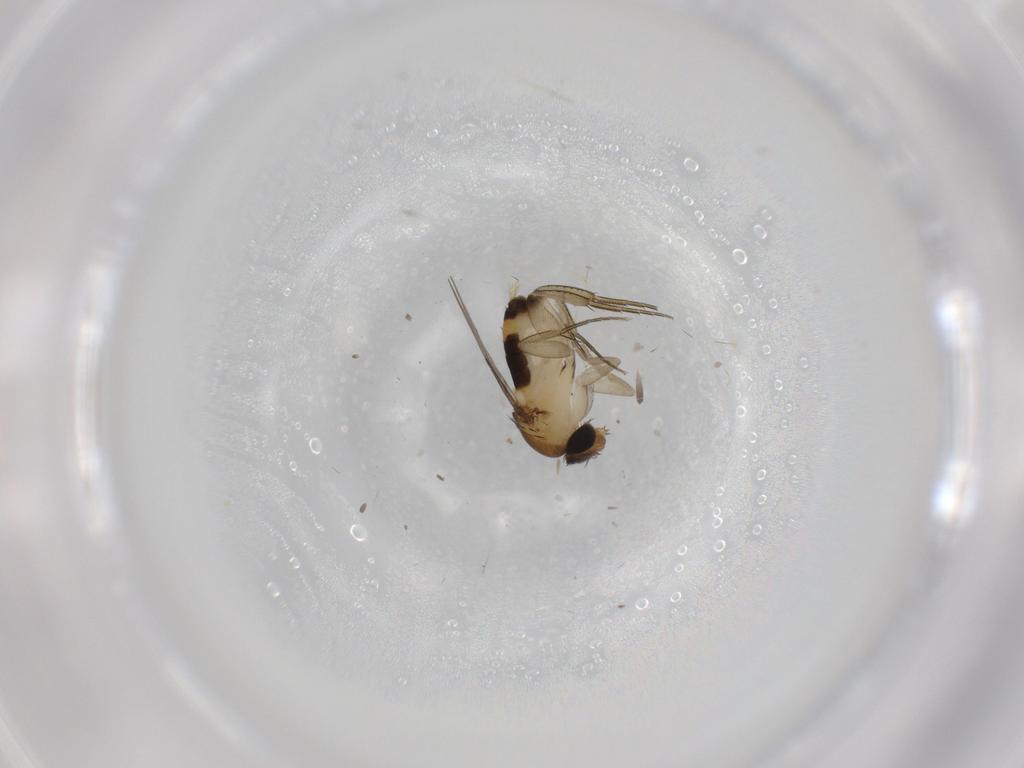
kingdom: Animalia
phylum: Arthropoda
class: Insecta
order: Diptera
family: Phoridae
